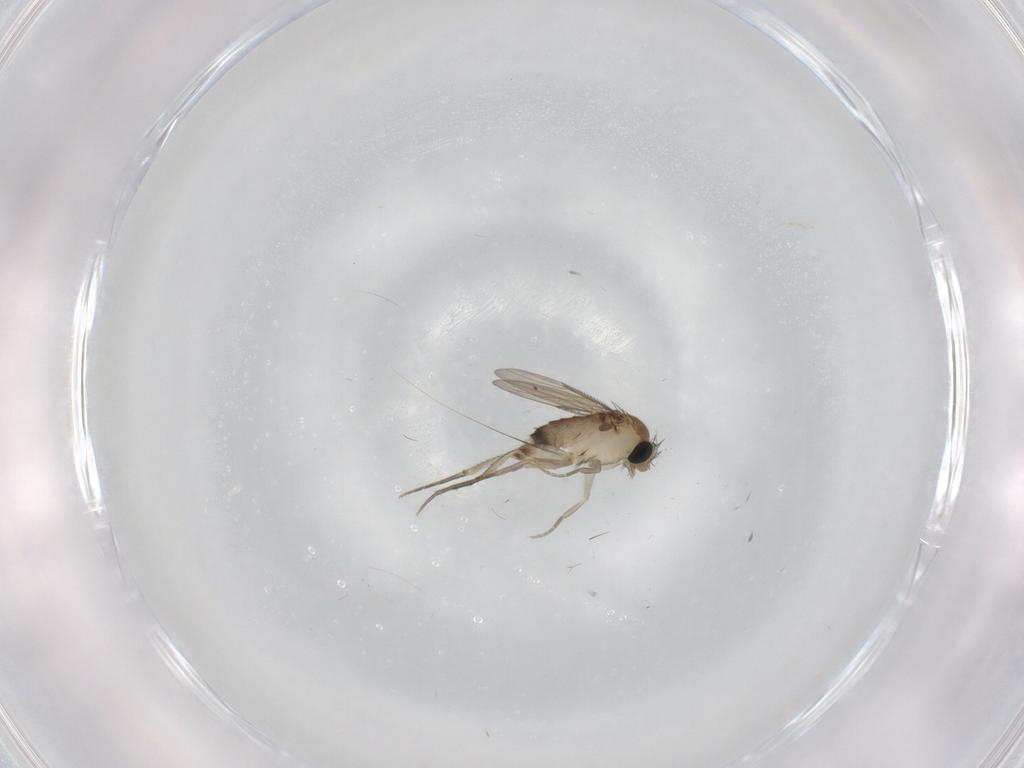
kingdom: Animalia
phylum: Arthropoda
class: Insecta
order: Diptera
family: Phoridae
